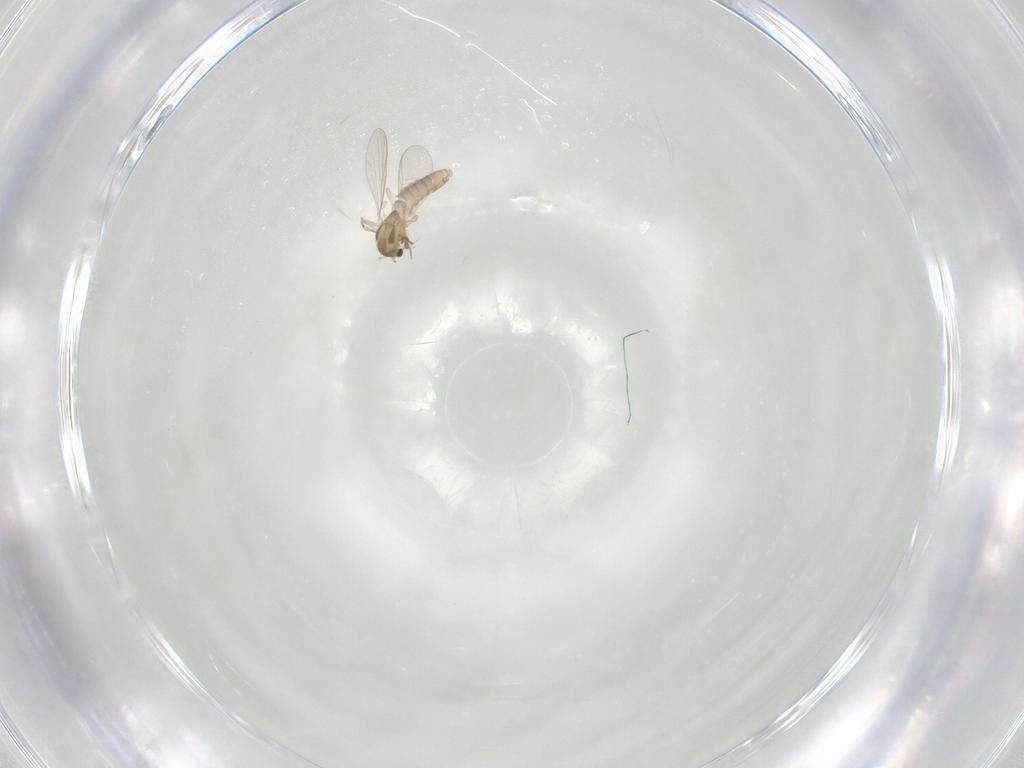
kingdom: Animalia
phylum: Arthropoda
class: Insecta
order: Diptera
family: Chironomidae
